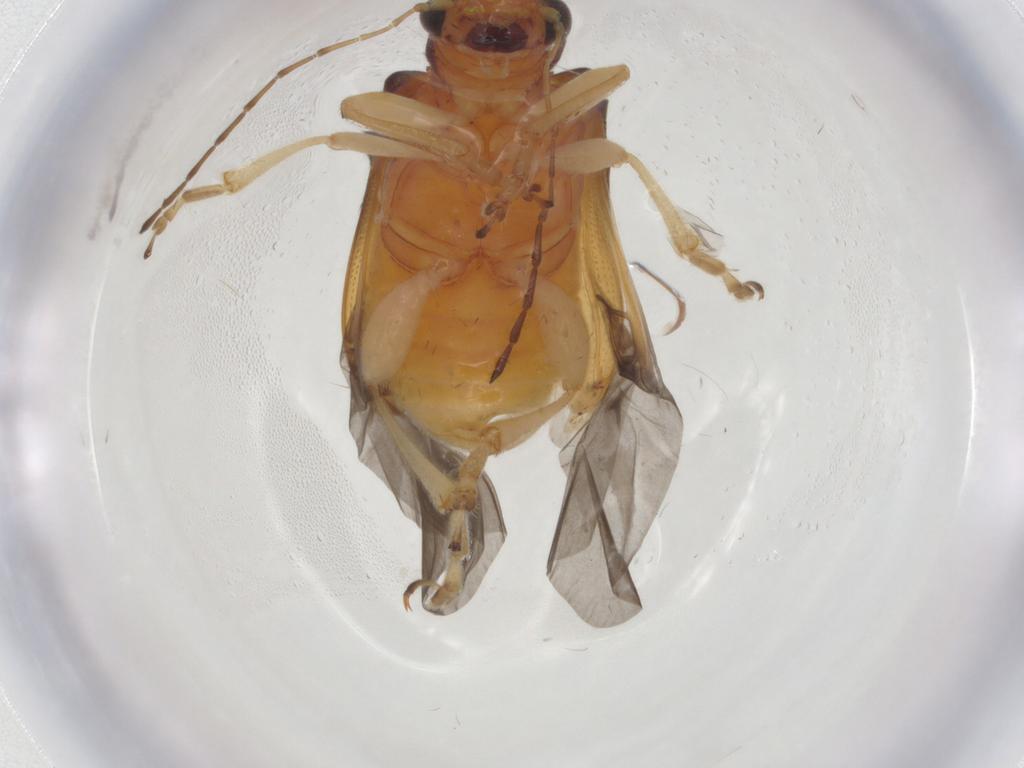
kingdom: Animalia
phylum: Arthropoda
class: Insecta
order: Coleoptera
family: Chrysomelidae
